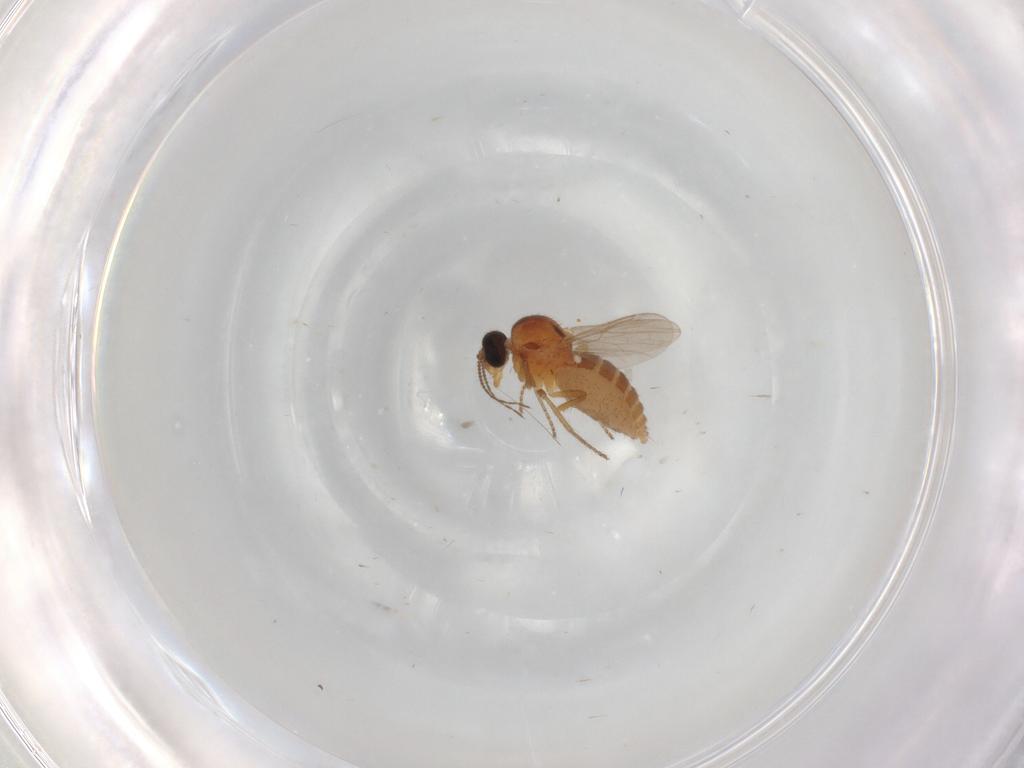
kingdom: Animalia
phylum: Arthropoda
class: Insecta
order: Diptera
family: Ceratopogonidae
